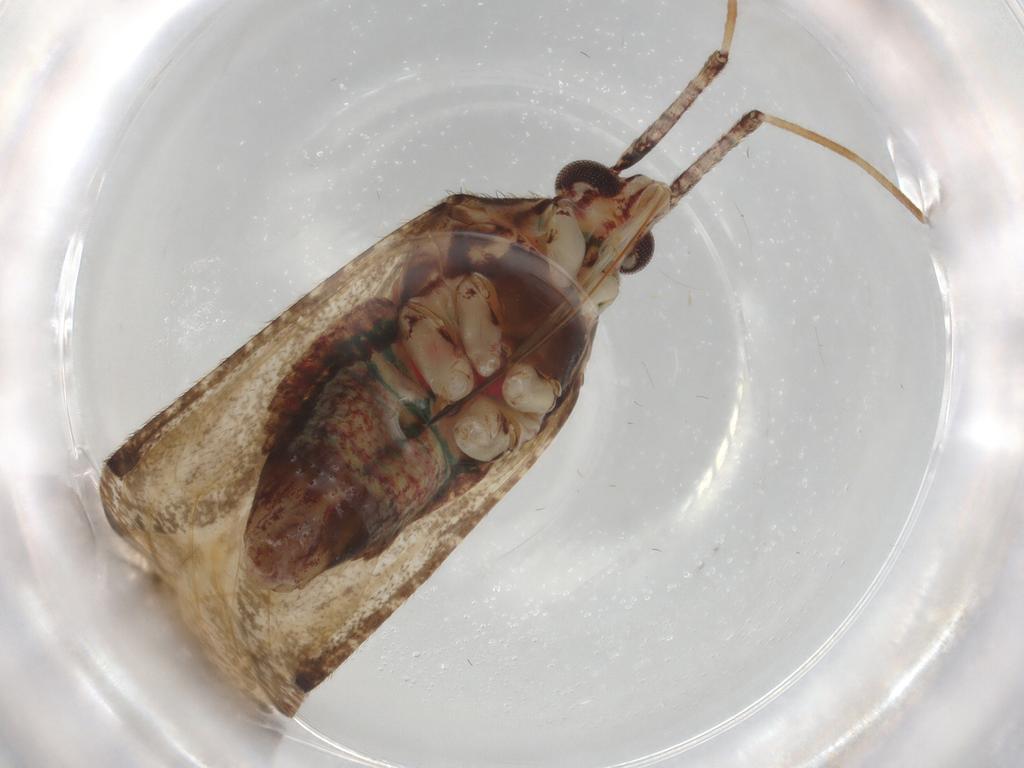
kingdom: Animalia
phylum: Arthropoda
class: Insecta
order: Hemiptera
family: Miridae
